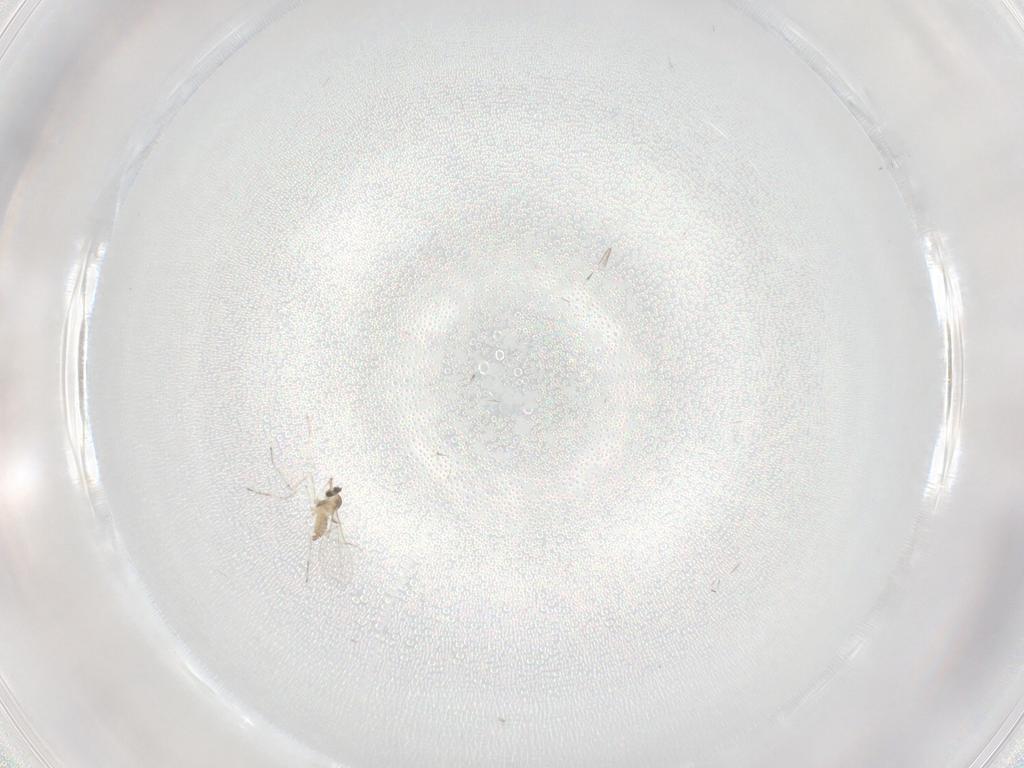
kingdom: Animalia
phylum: Arthropoda
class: Insecta
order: Diptera
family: Cecidomyiidae
